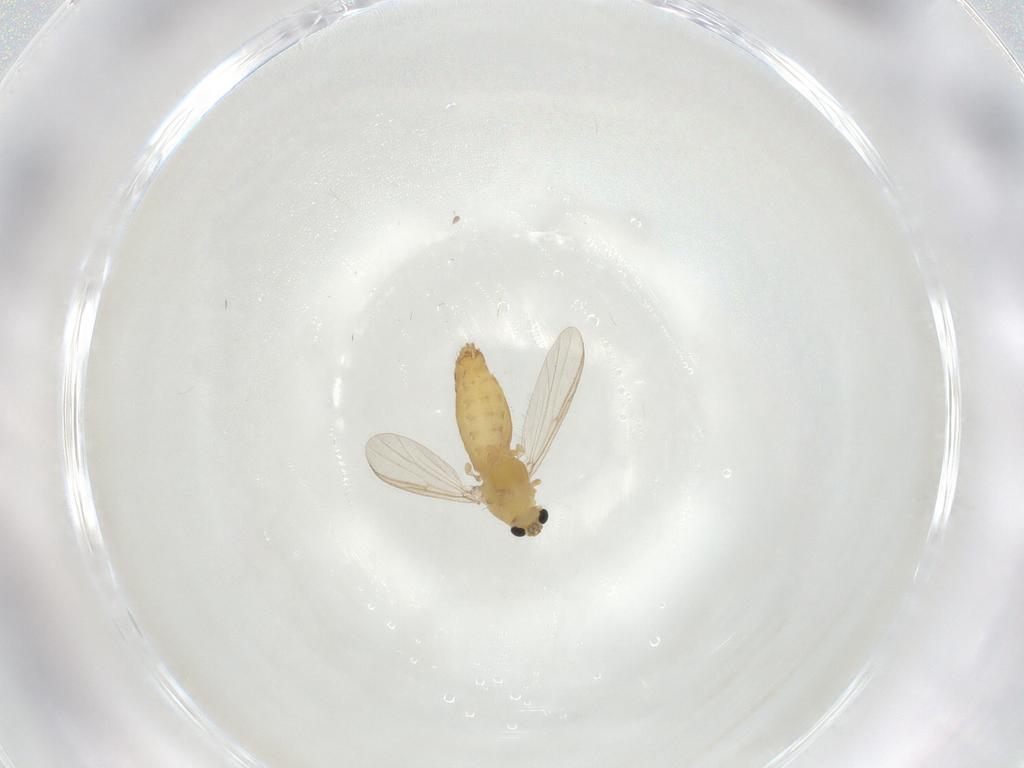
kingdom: Animalia
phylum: Arthropoda
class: Insecta
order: Diptera
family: Chironomidae
